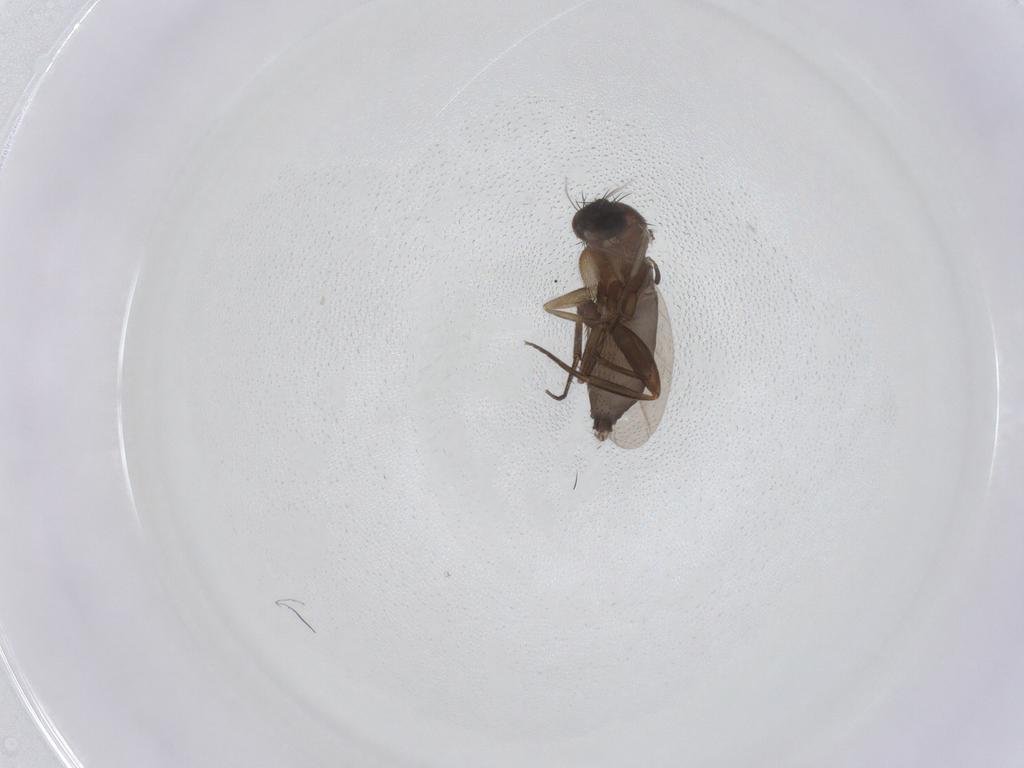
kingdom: Animalia
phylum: Arthropoda
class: Insecta
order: Diptera
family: Phoridae
